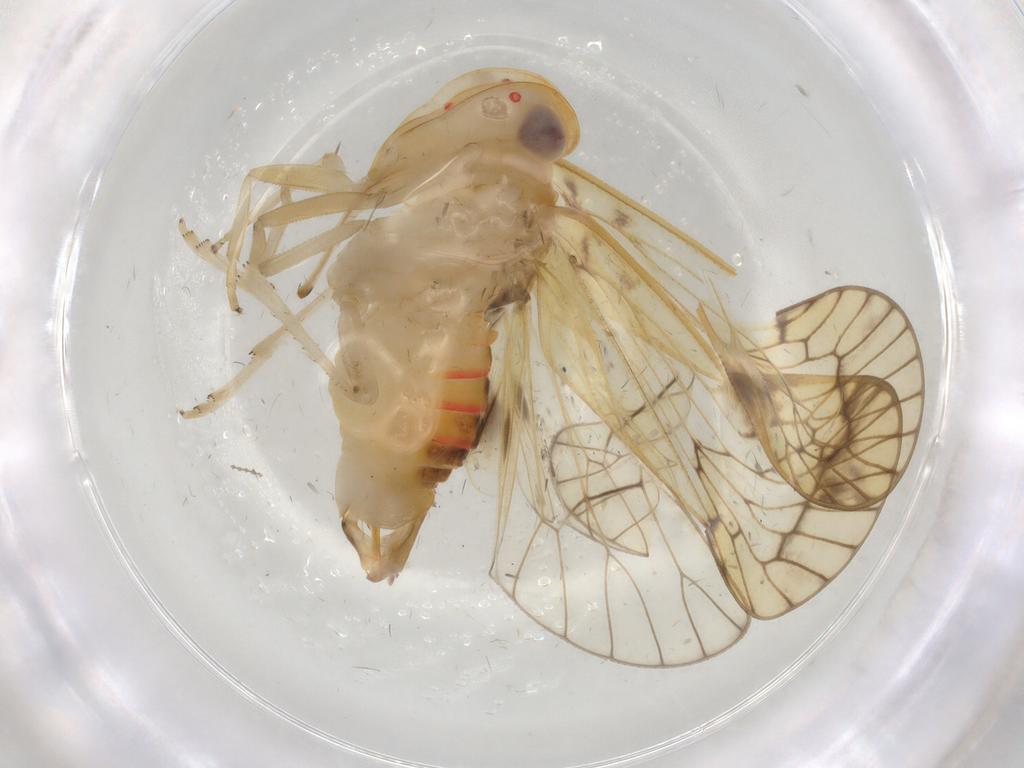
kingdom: Animalia
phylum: Arthropoda
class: Insecta
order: Hemiptera
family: Cixiidae
